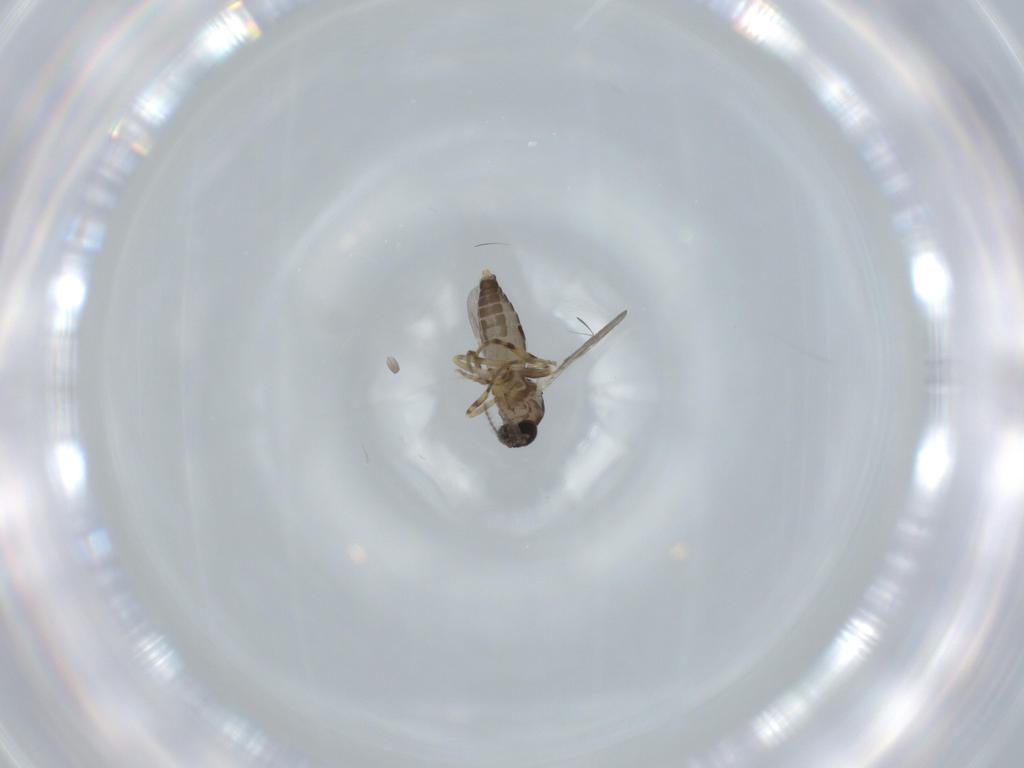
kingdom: Animalia
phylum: Arthropoda
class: Insecta
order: Diptera
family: Ceratopogonidae
